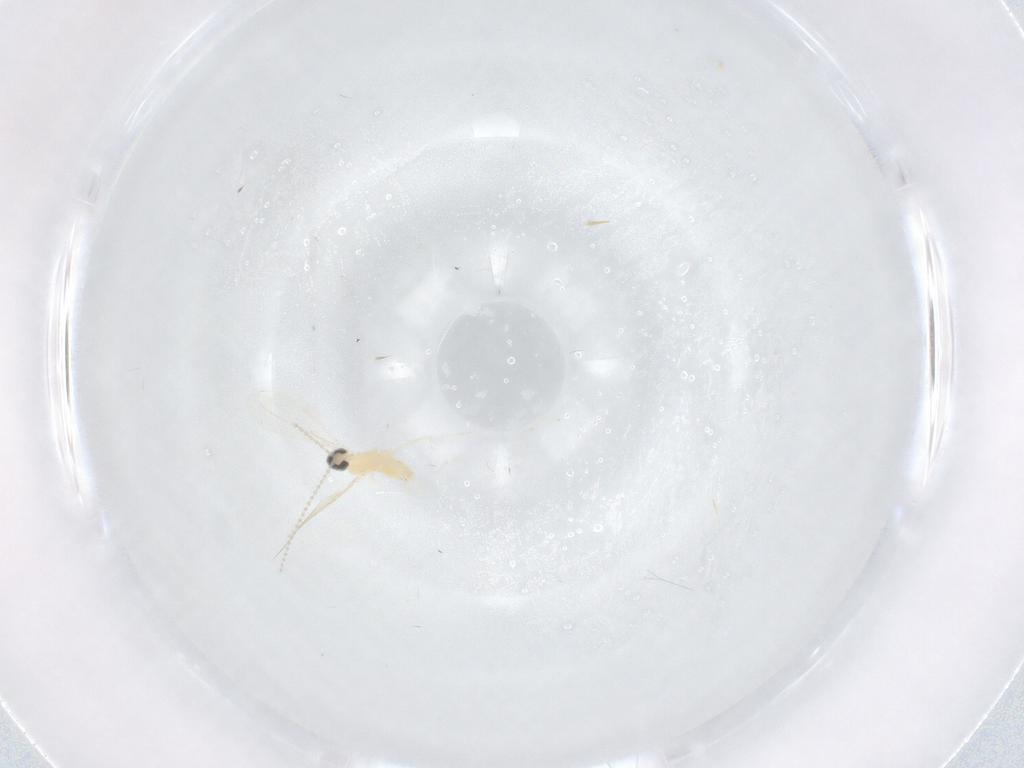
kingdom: Animalia
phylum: Arthropoda
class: Insecta
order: Diptera
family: Cecidomyiidae
